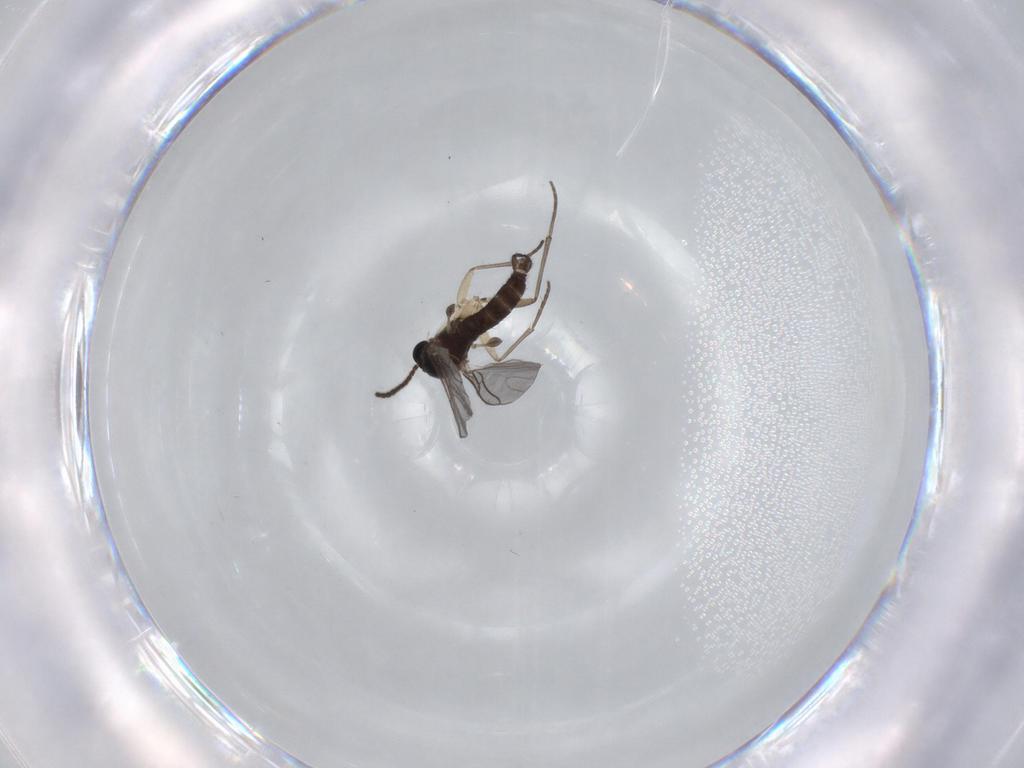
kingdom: Animalia
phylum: Arthropoda
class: Insecta
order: Diptera
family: Sciaridae
